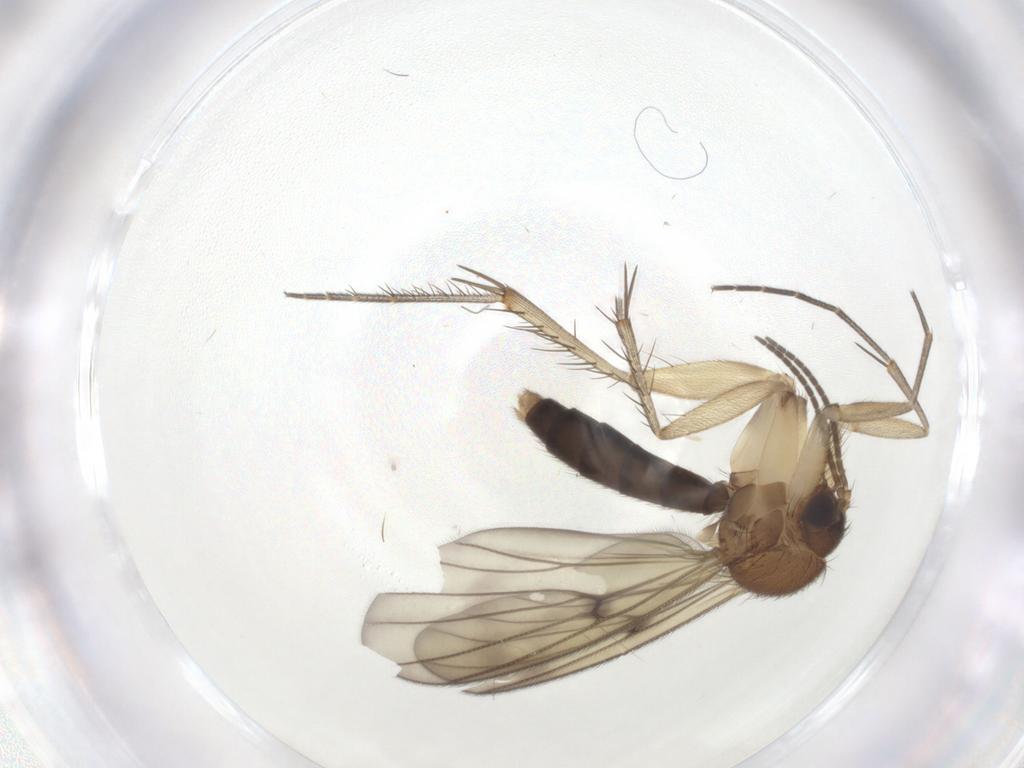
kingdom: Animalia
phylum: Arthropoda
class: Insecta
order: Diptera
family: Mycetophilidae
